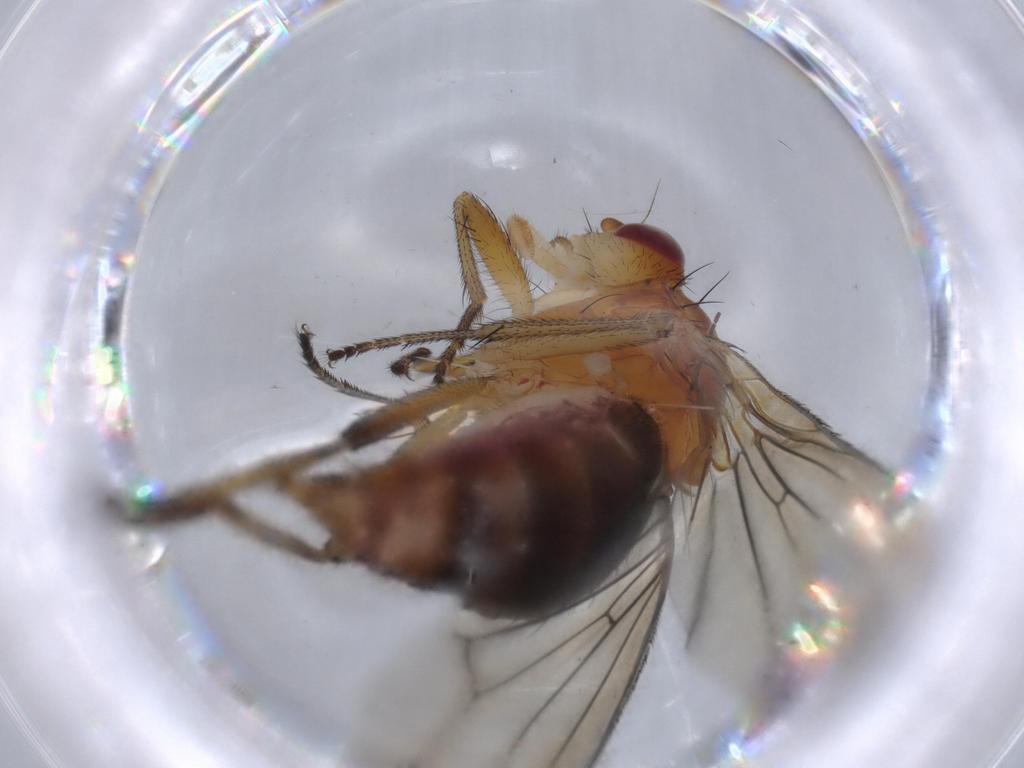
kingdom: Animalia
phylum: Arthropoda
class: Insecta
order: Diptera
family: Heleomyzidae
